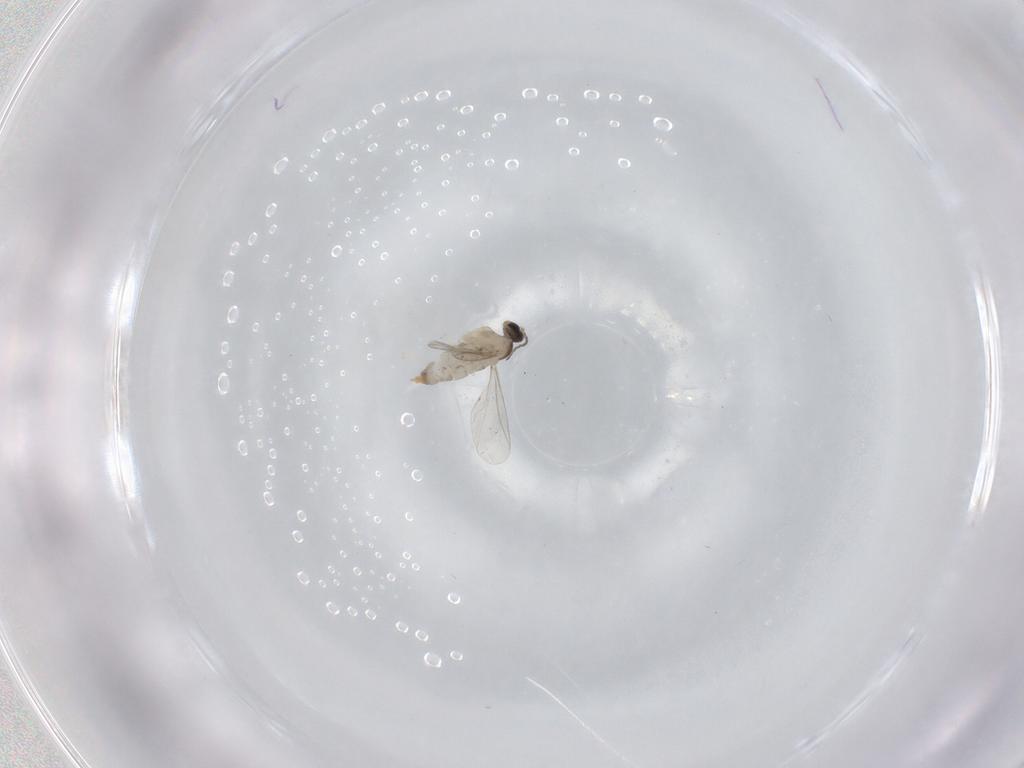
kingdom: Animalia
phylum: Arthropoda
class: Insecta
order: Diptera
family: Cecidomyiidae
